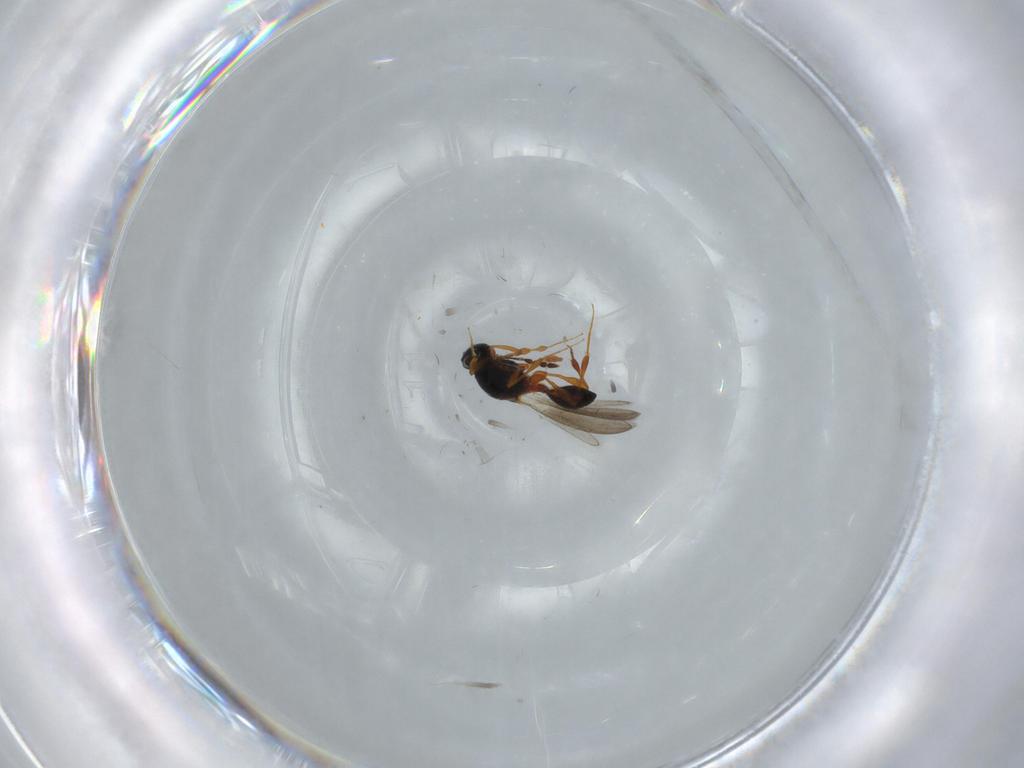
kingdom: Animalia
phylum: Arthropoda
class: Insecta
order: Hymenoptera
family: Platygastridae
